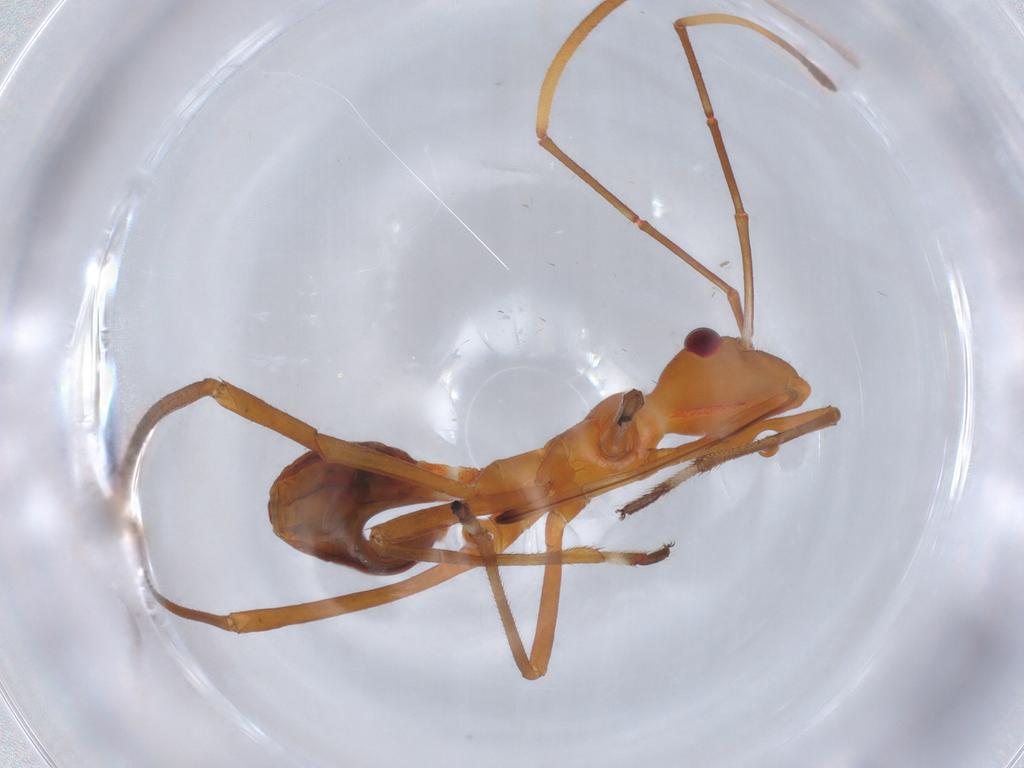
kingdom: Animalia
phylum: Arthropoda
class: Insecta
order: Hemiptera
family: Alydidae
